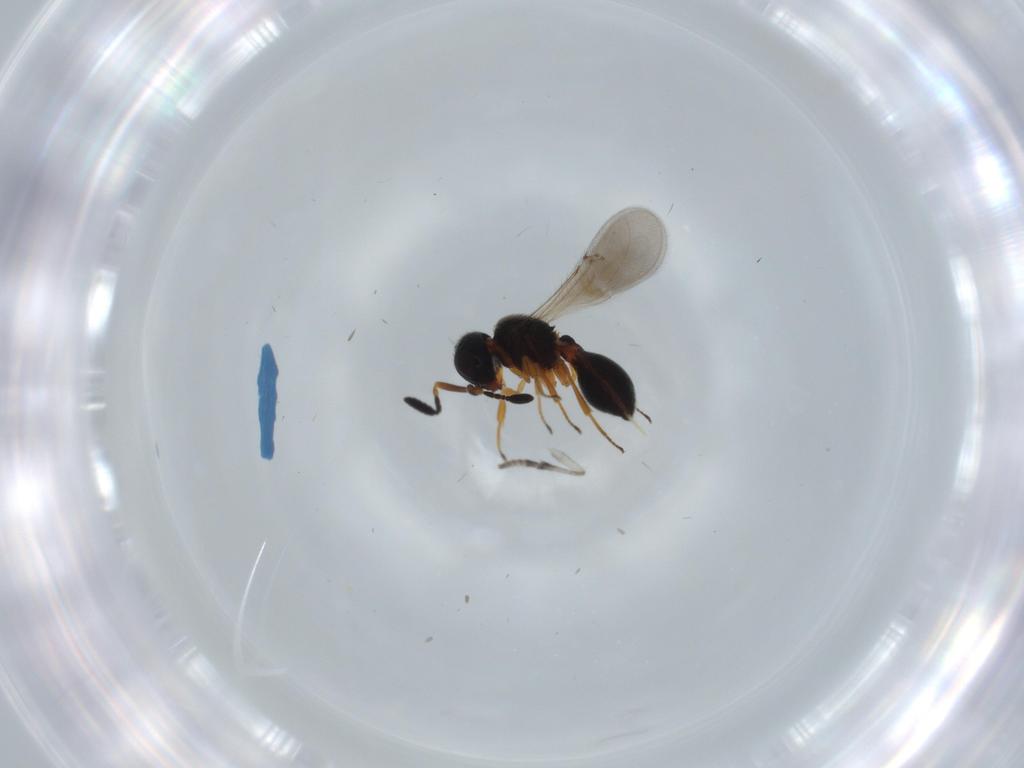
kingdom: Animalia
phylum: Arthropoda
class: Insecta
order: Hymenoptera
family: Scelionidae
